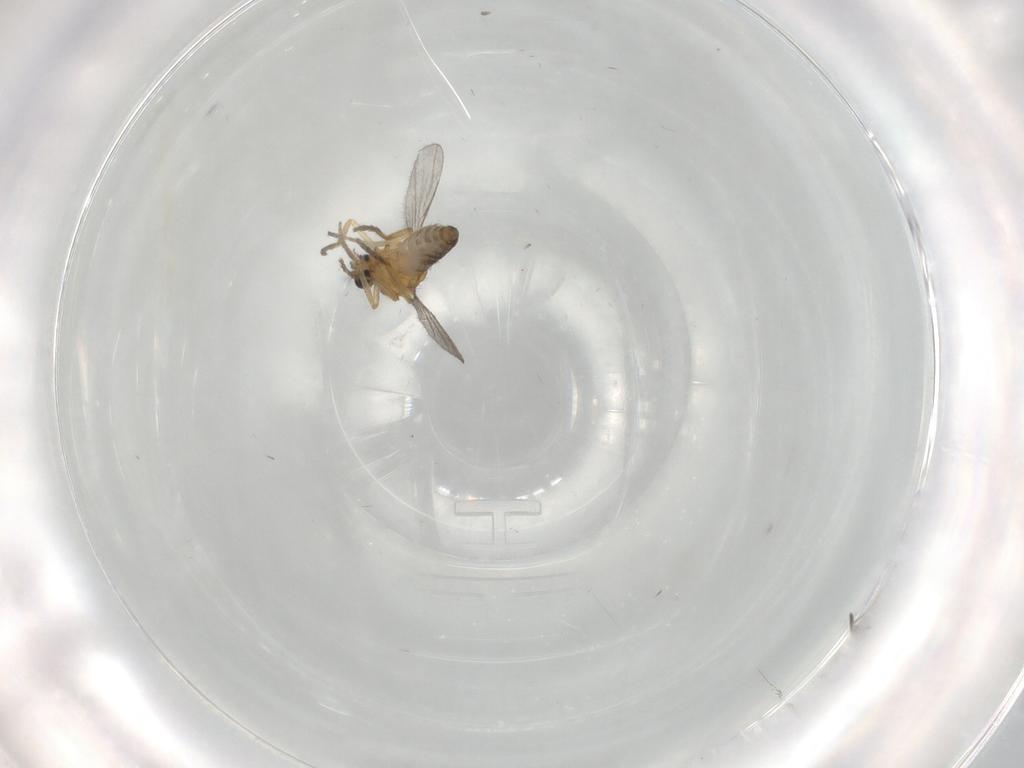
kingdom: Animalia
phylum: Arthropoda
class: Insecta
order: Diptera
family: Ceratopogonidae
